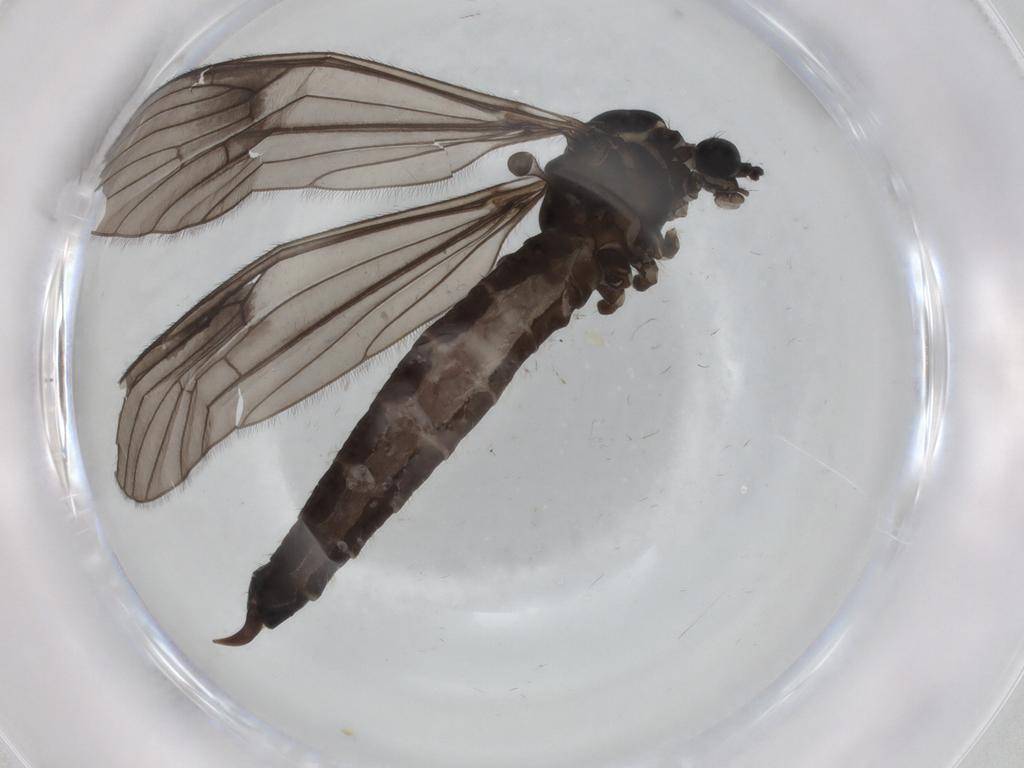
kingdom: Animalia
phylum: Arthropoda
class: Insecta
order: Diptera
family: Limoniidae
